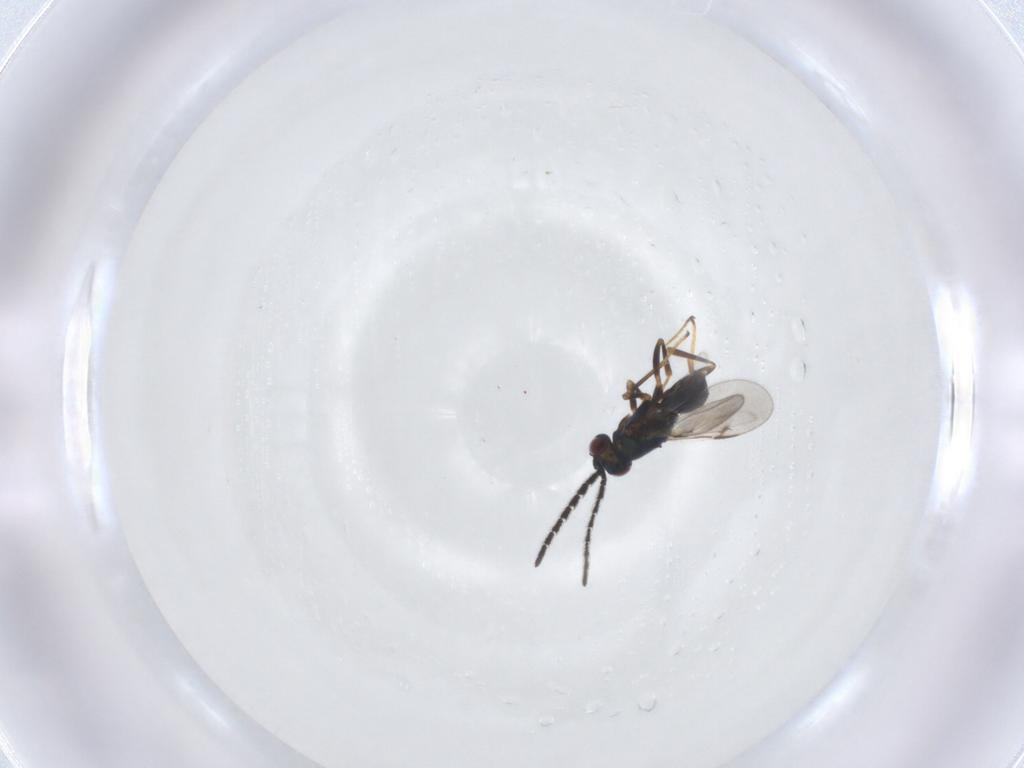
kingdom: Animalia
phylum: Arthropoda
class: Insecta
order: Hymenoptera
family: Encyrtidae
